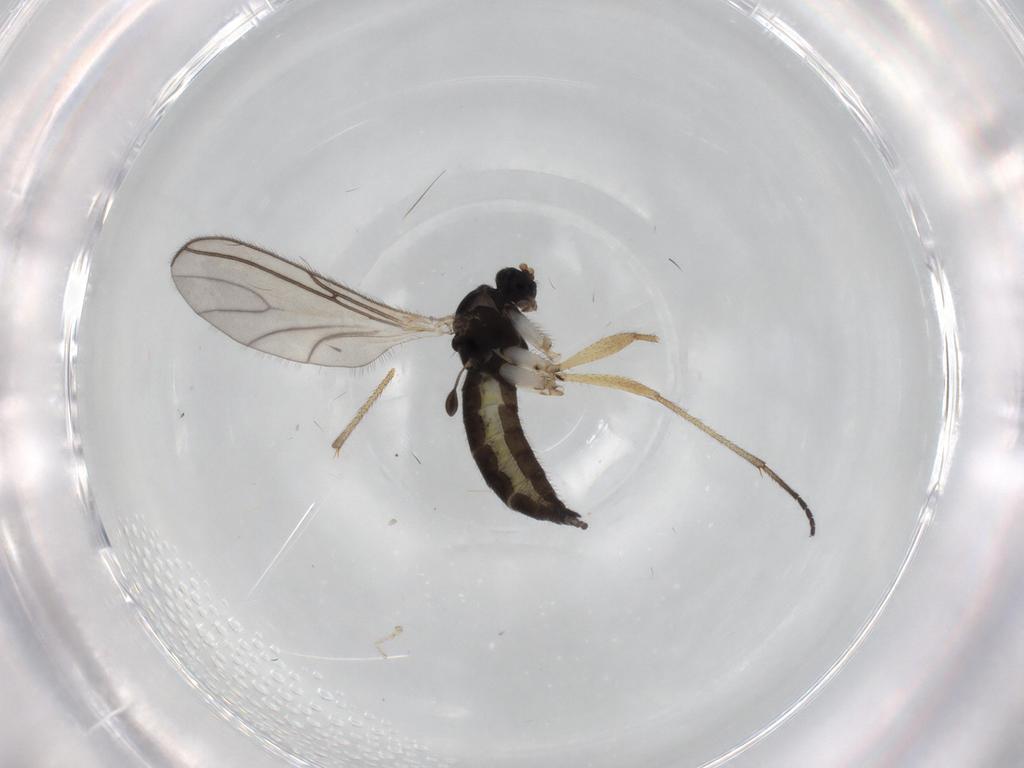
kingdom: Animalia
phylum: Arthropoda
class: Insecta
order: Diptera
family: Sciaridae
